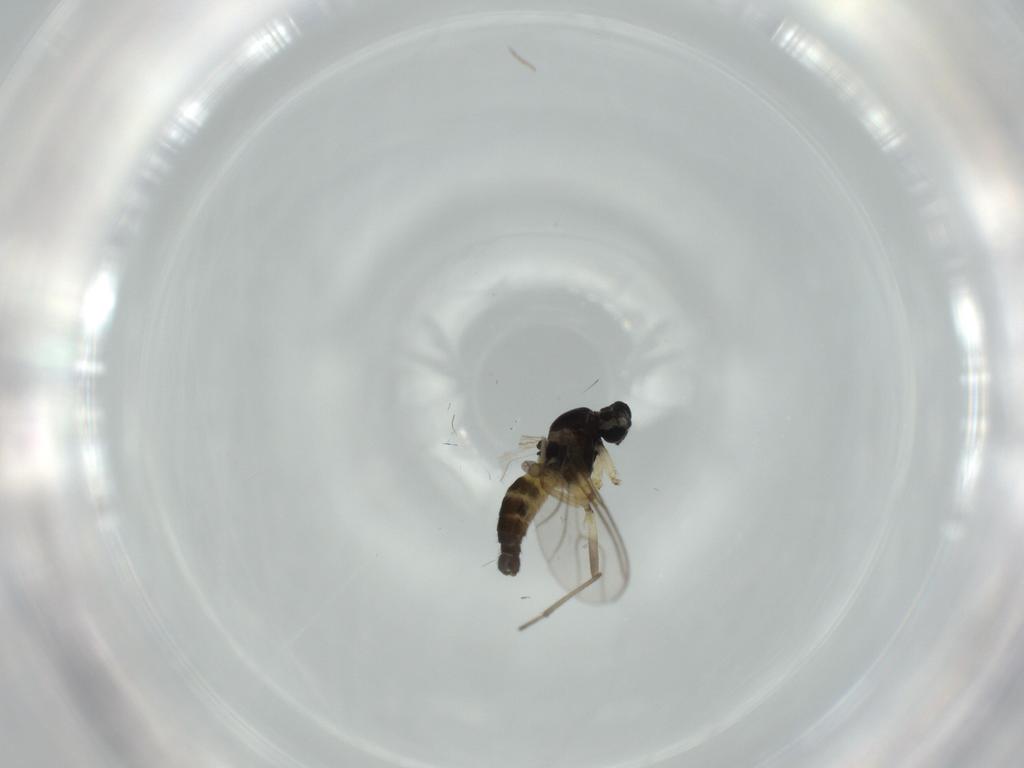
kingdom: Animalia
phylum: Arthropoda
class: Insecta
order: Diptera
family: Sciaridae
